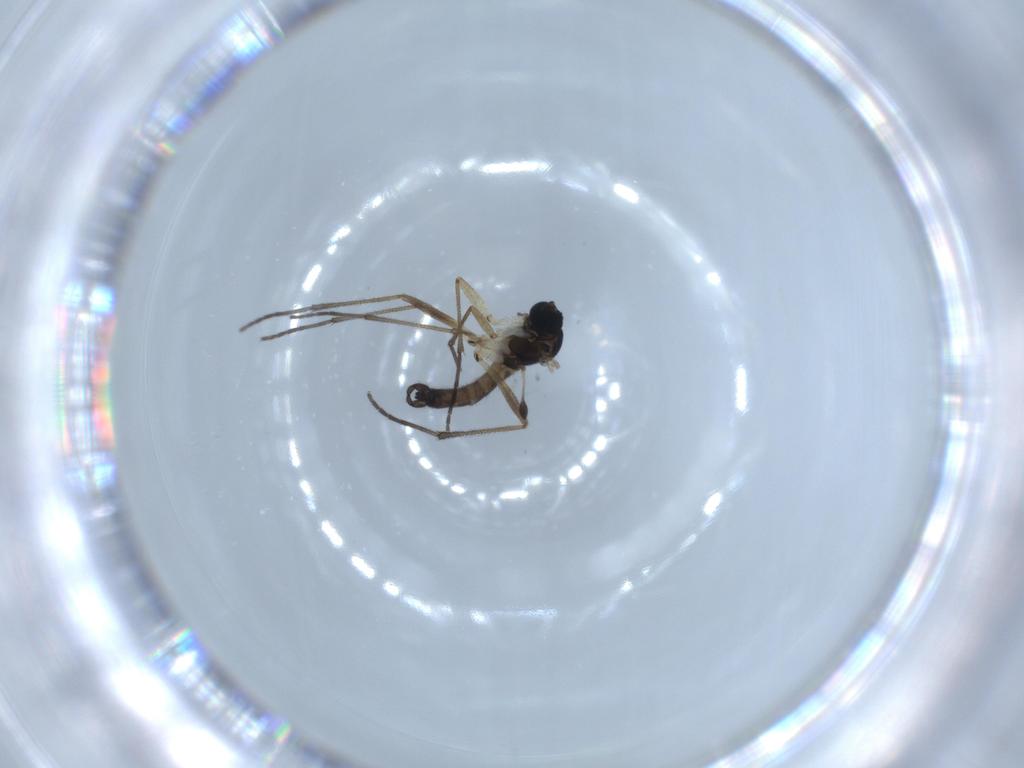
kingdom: Animalia
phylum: Arthropoda
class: Insecta
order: Diptera
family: Sciaridae
